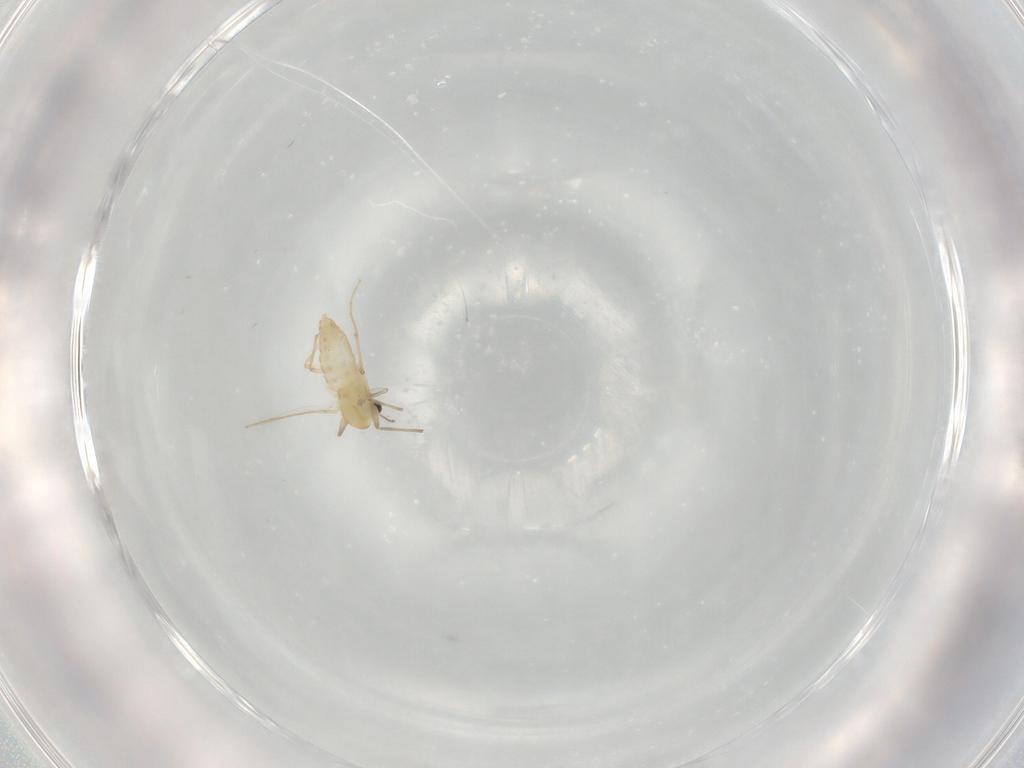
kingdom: Animalia
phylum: Arthropoda
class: Insecta
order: Diptera
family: Chironomidae
